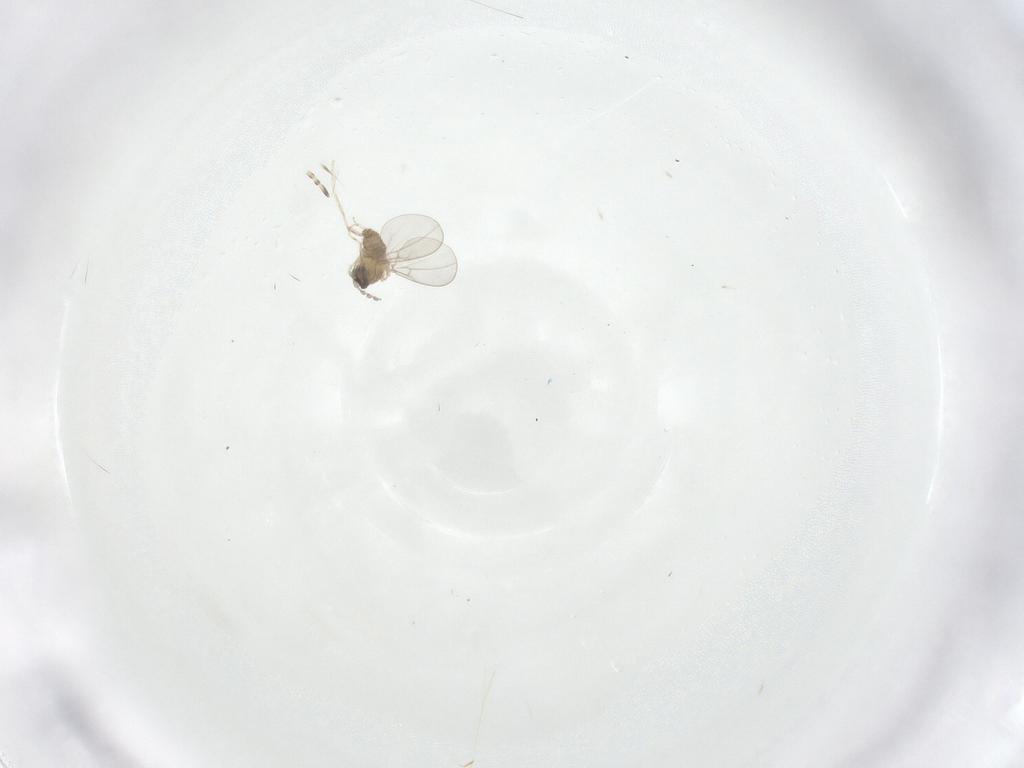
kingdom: Animalia
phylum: Arthropoda
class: Insecta
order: Diptera
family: Cecidomyiidae
